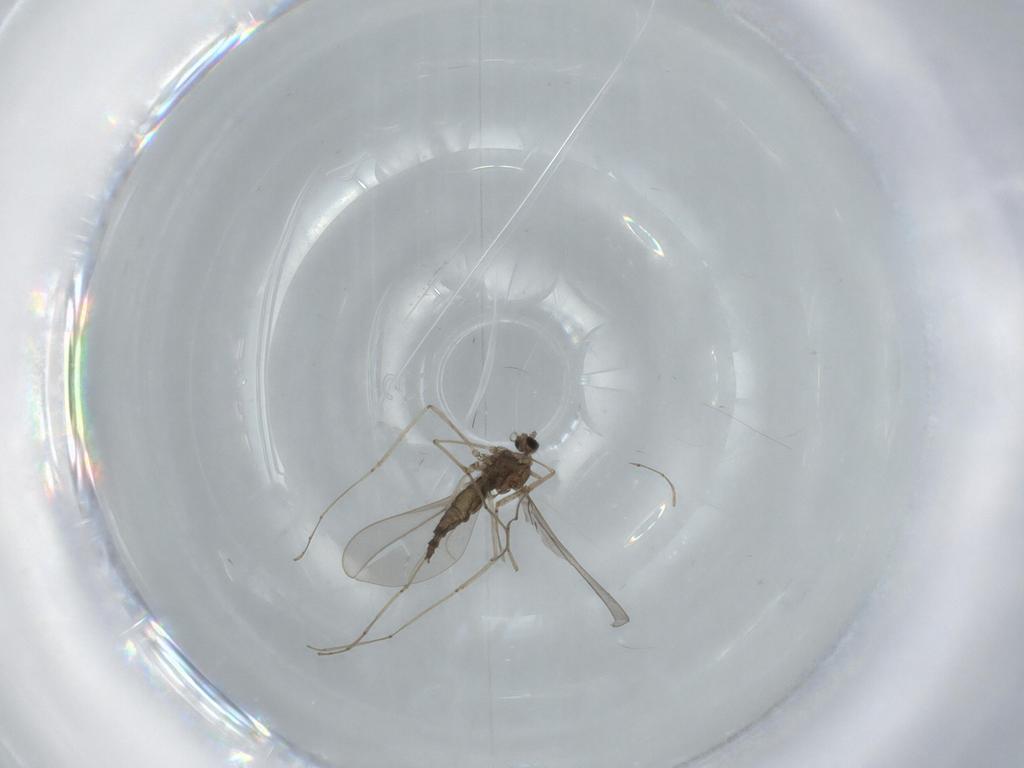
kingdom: Animalia
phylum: Arthropoda
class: Insecta
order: Diptera
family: Cecidomyiidae
